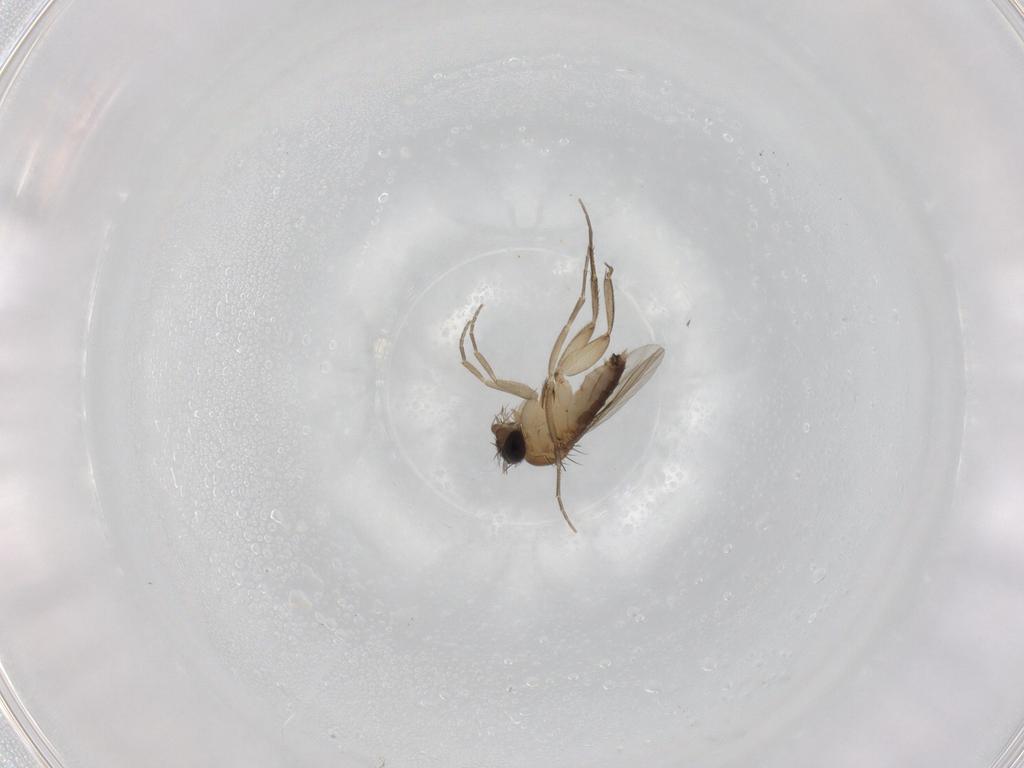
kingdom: Animalia
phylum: Arthropoda
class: Insecta
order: Diptera
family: Phoridae
